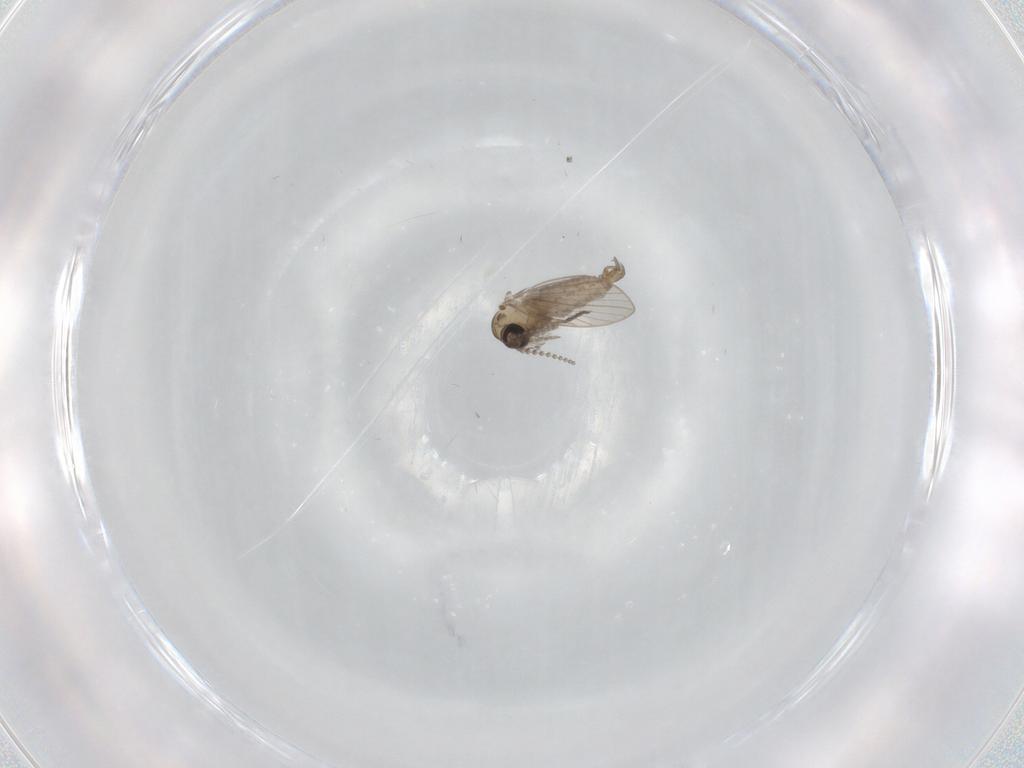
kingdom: Animalia
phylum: Arthropoda
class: Insecta
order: Diptera
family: Psychodidae
